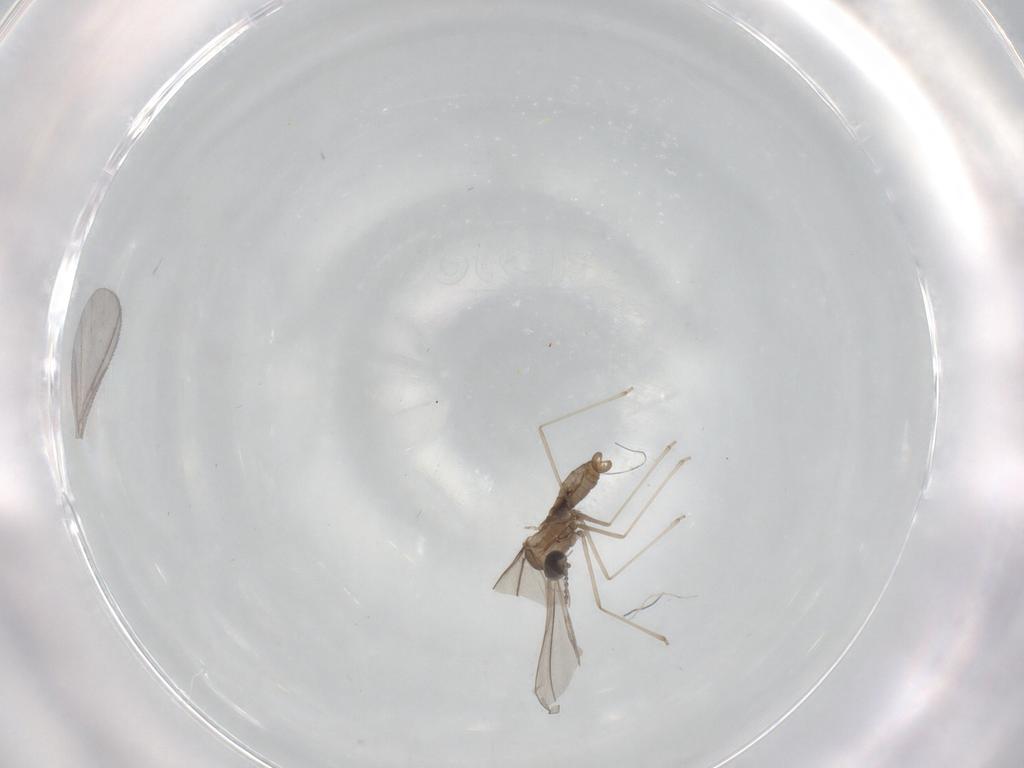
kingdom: Animalia
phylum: Arthropoda
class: Insecta
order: Diptera
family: Cecidomyiidae
